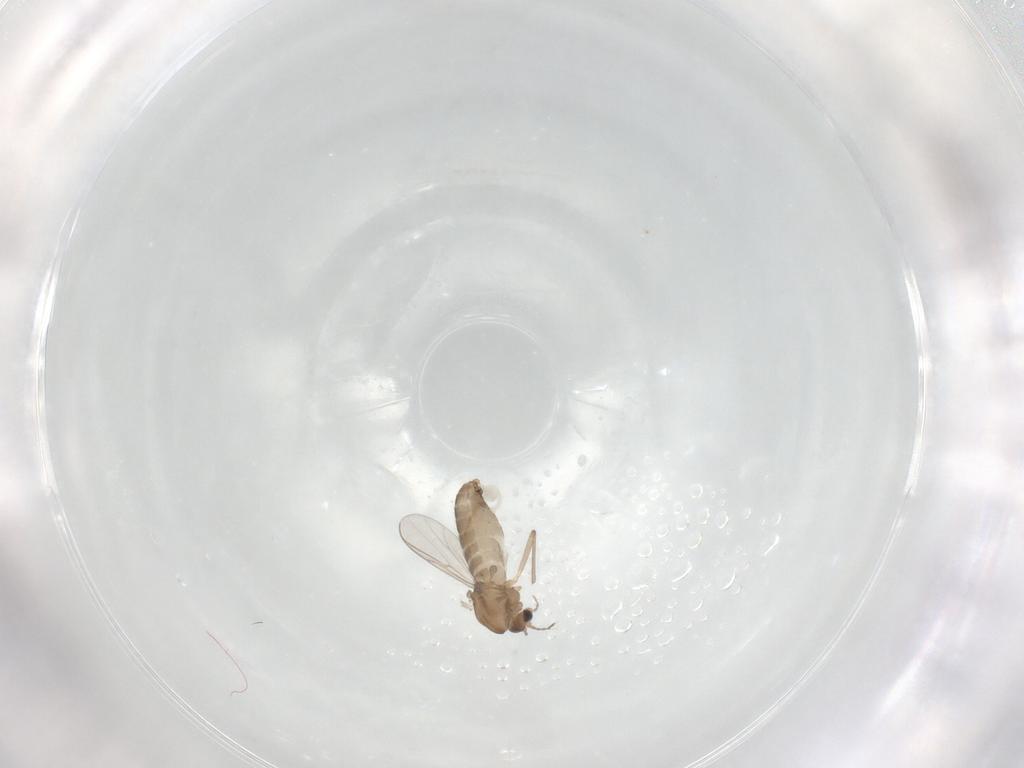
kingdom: Animalia
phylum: Arthropoda
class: Insecta
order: Diptera
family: Chironomidae
